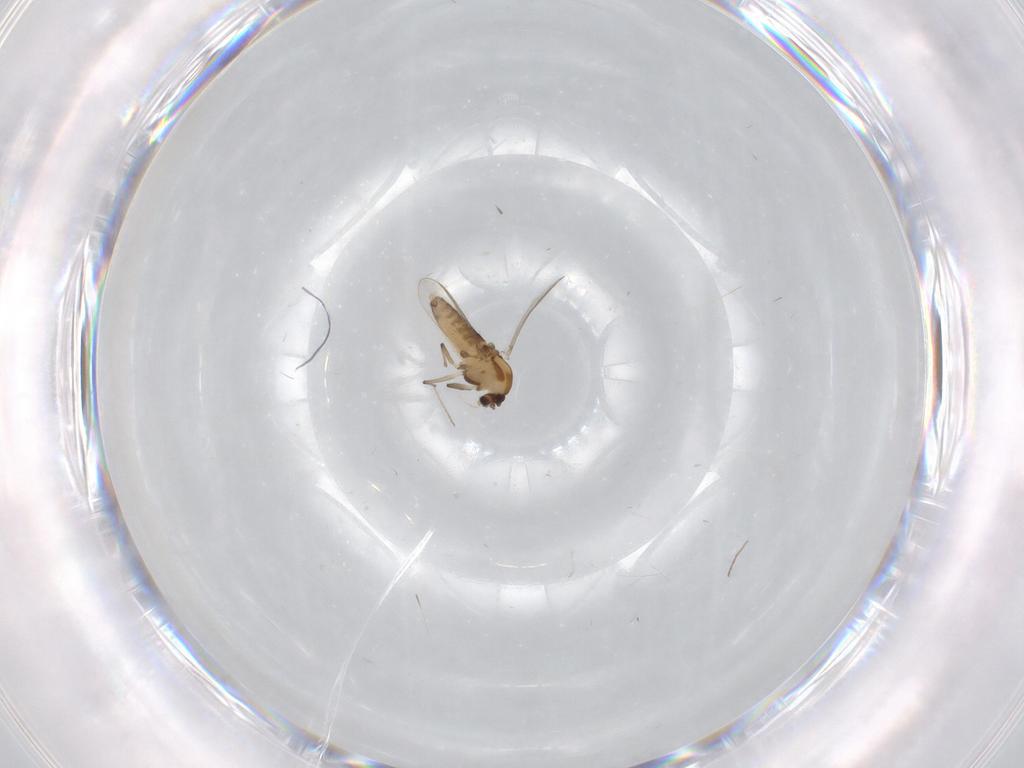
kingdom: Animalia
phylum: Arthropoda
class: Insecta
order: Diptera
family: Chironomidae
